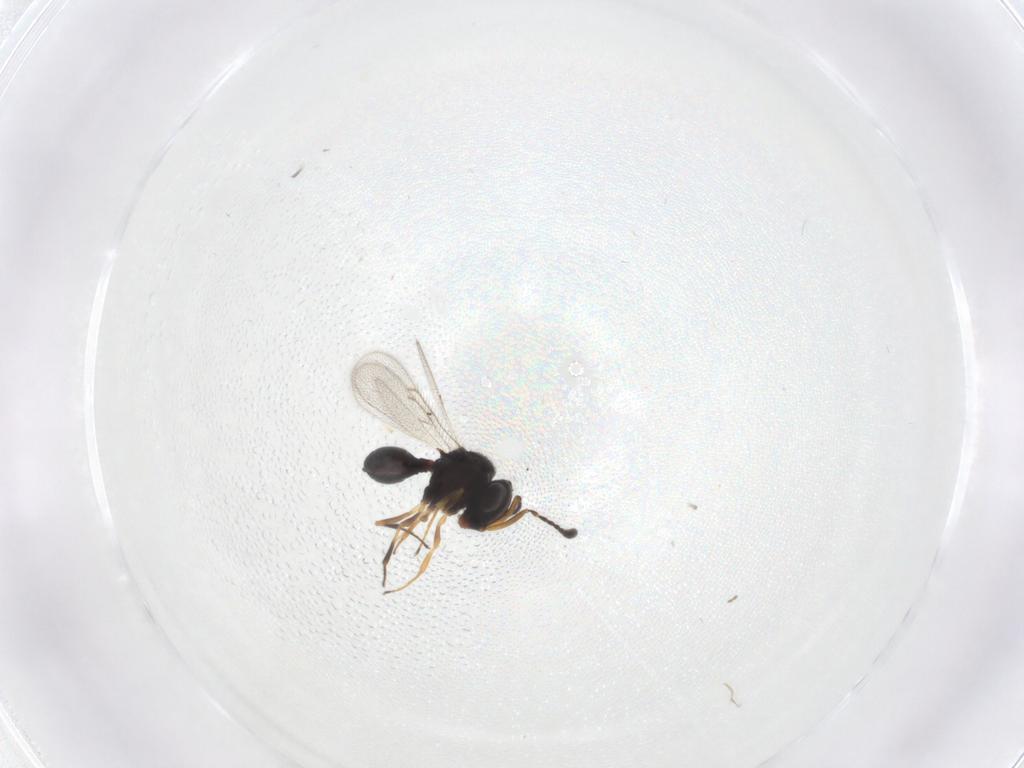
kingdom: Animalia
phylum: Arthropoda
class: Insecta
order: Hymenoptera
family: Scelionidae
